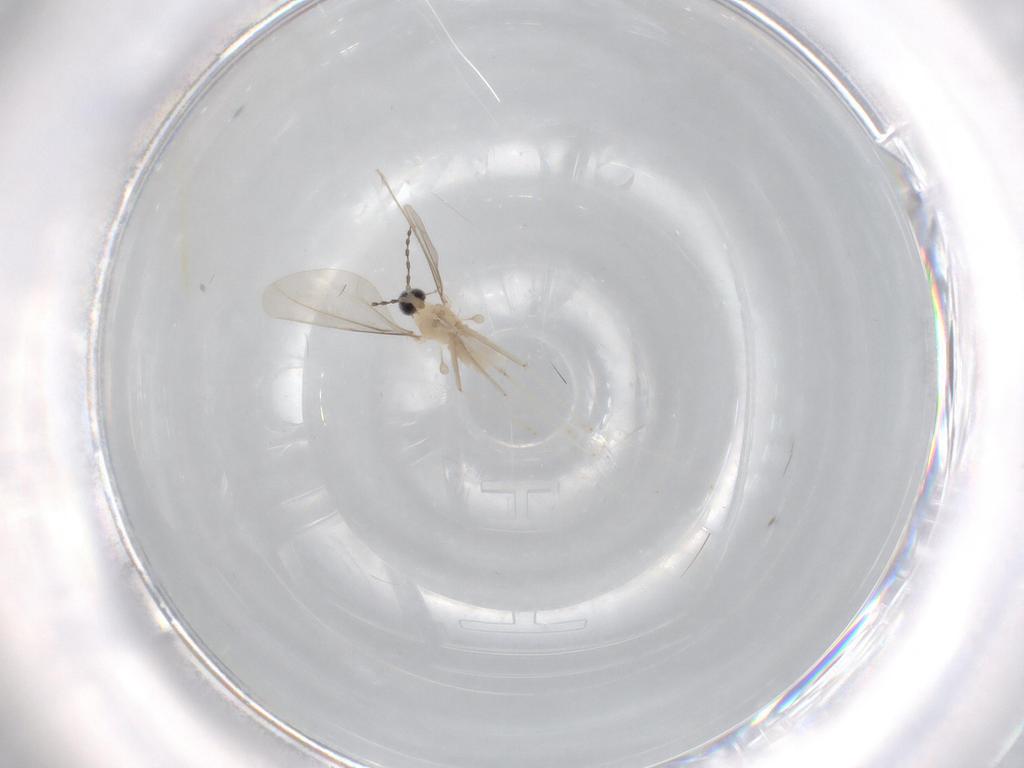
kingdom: Animalia
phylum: Arthropoda
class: Insecta
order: Diptera
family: Cecidomyiidae
